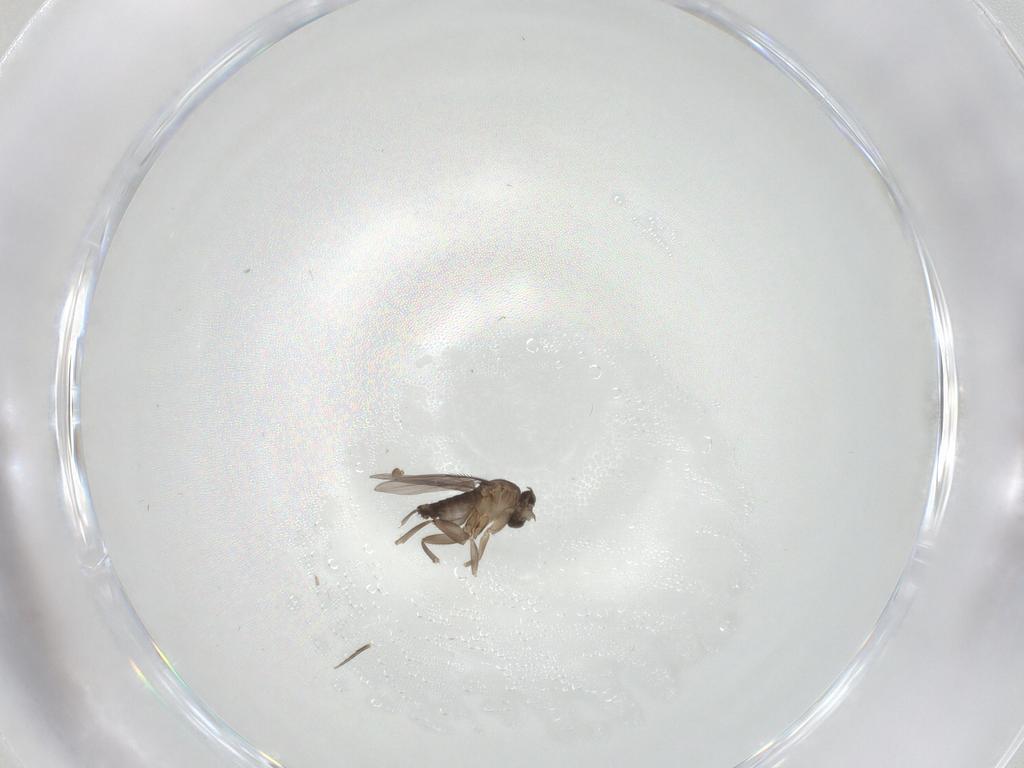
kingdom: Animalia
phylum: Arthropoda
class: Insecta
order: Diptera
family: Phoridae
